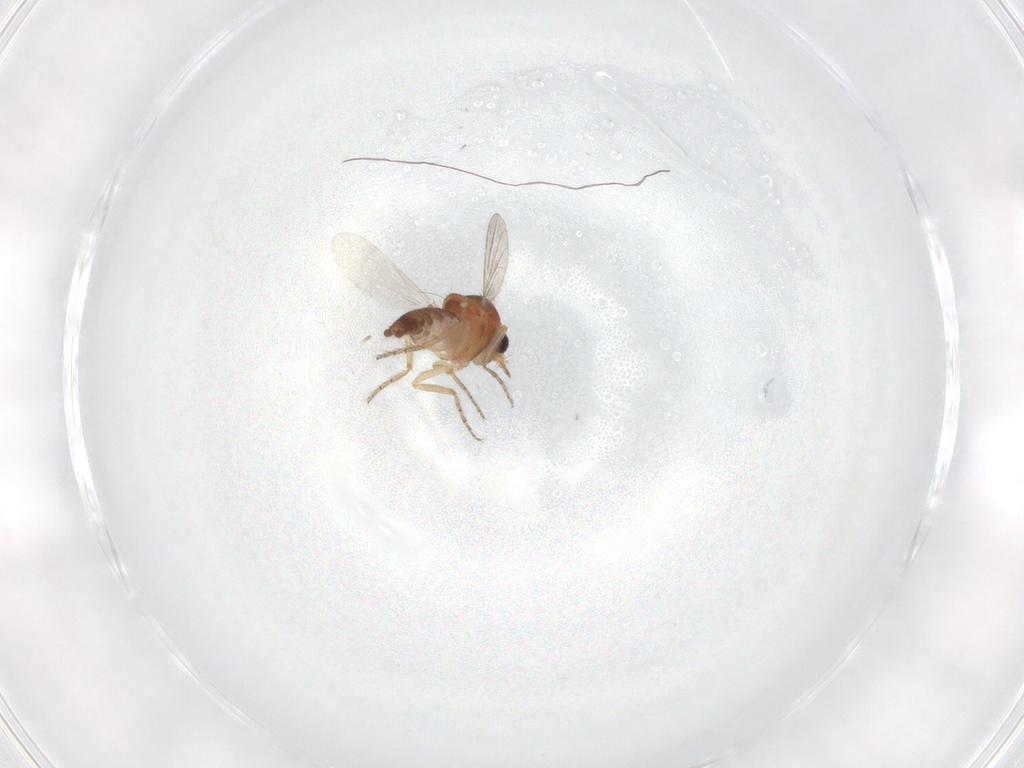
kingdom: Animalia
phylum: Arthropoda
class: Insecta
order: Diptera
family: Ceratopogonidae
